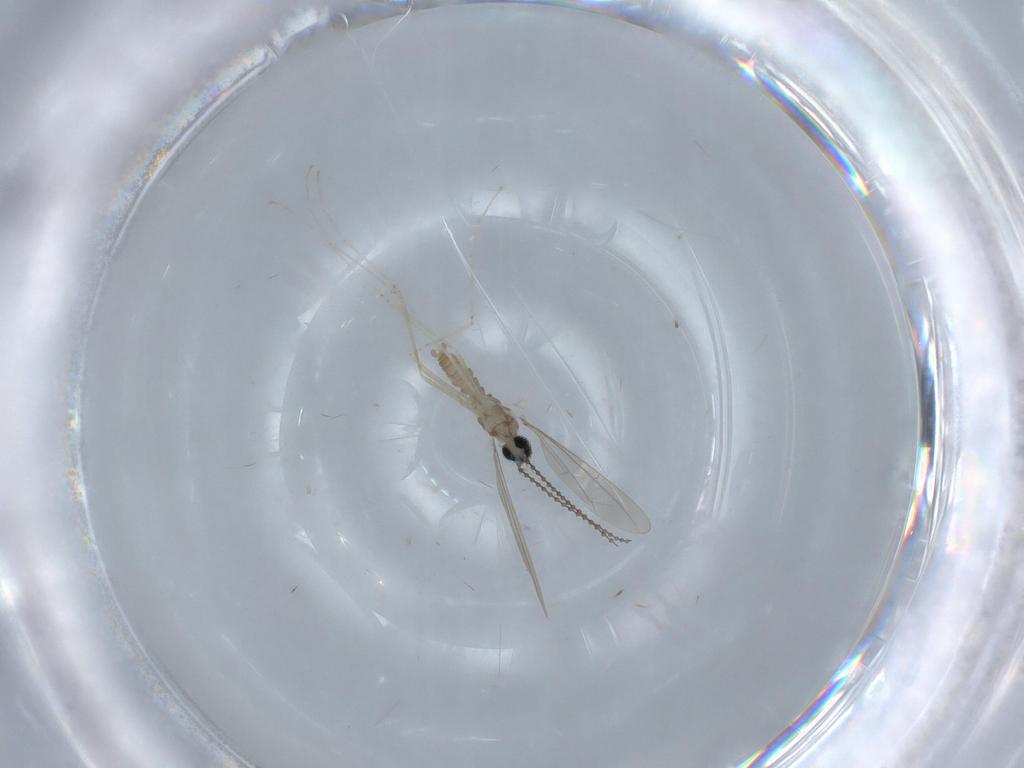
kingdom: Animalia
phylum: Arthropoda
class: Insecta
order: Diptera
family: Cecidomyiidae
